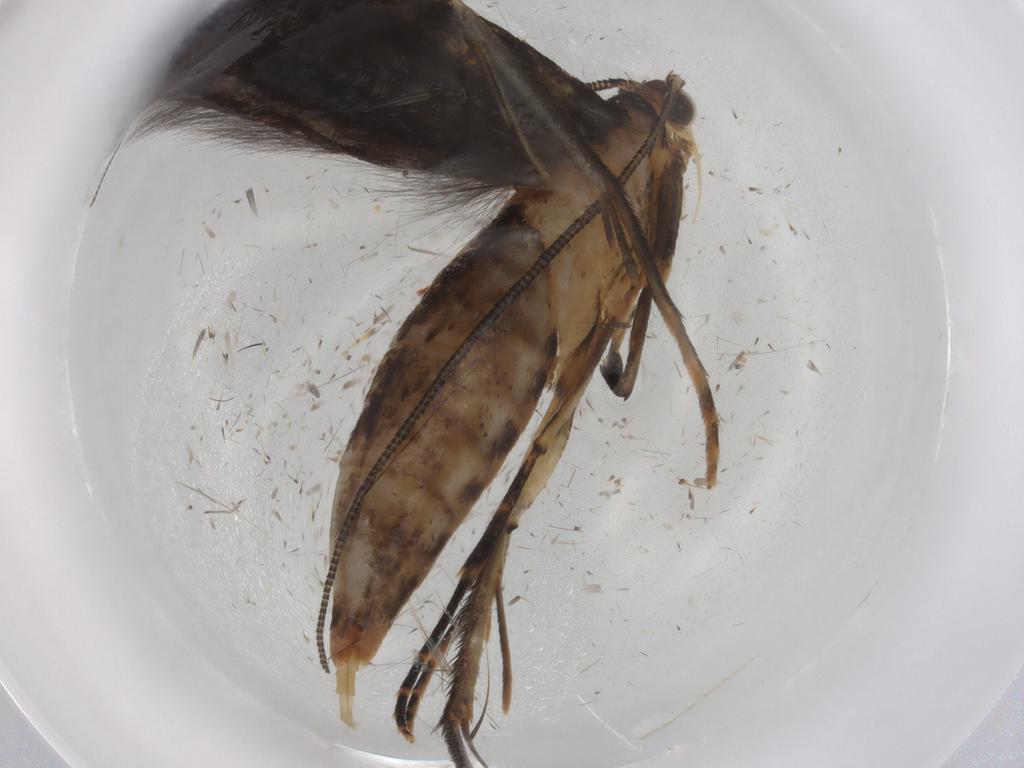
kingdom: Animalia
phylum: Arthropoda
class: Insecta
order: Lepidoptera
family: Tineidae
